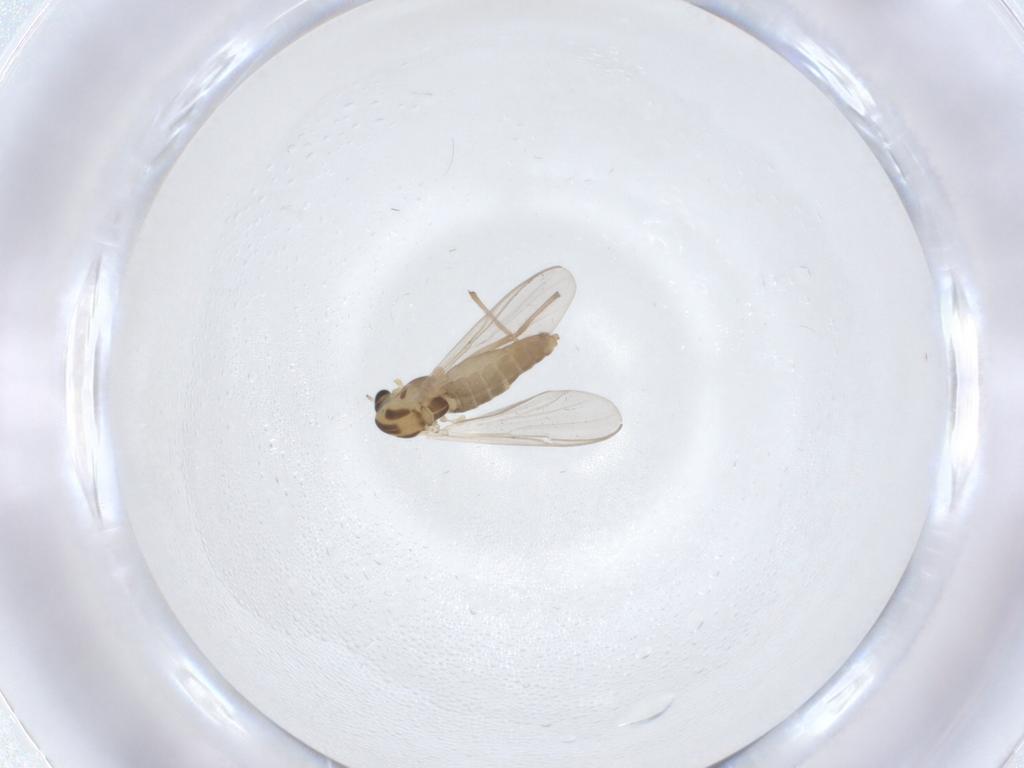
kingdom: Animalia
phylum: Arthropoda
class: Insecta
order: Diptera
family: Chironomidae
